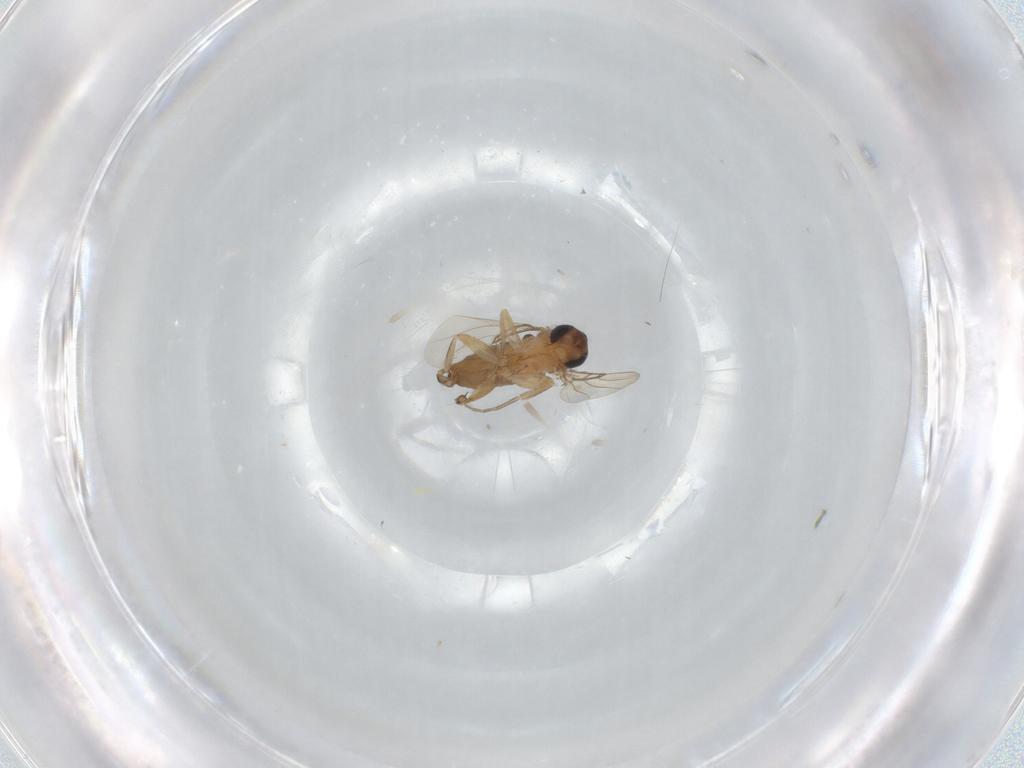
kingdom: Animalia
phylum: Arthropoda
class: Insecta
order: Diptera
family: Phoridae
